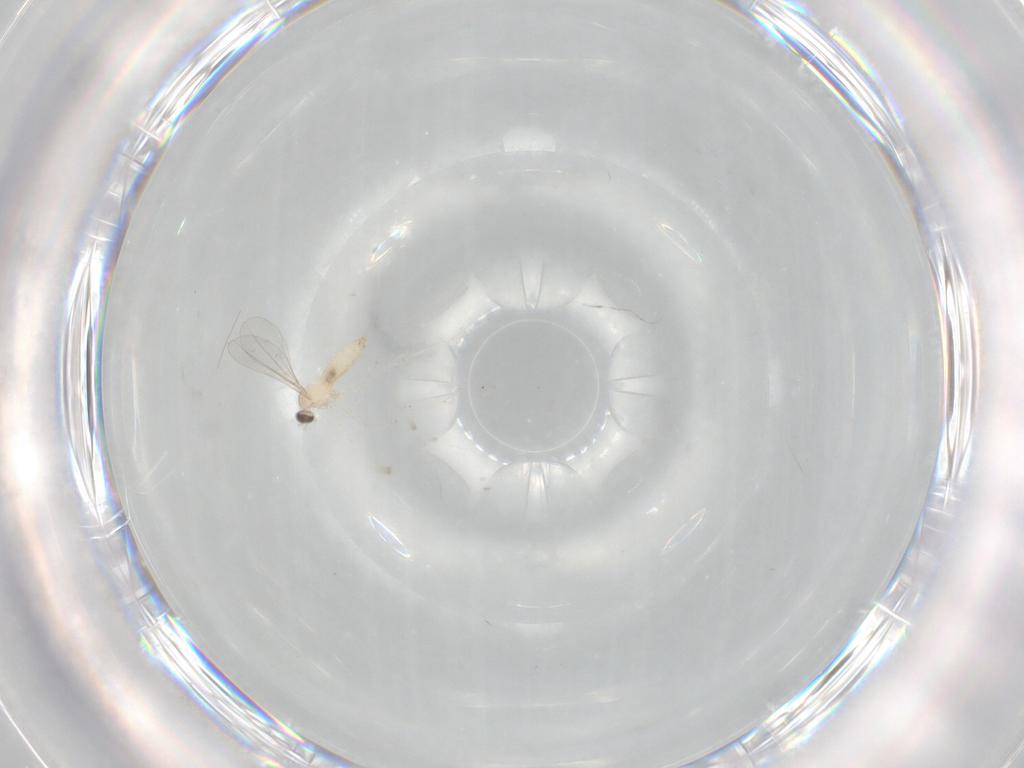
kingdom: Animalia
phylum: Arthropoda
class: Insecta
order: Diptera
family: Cecidomyiidae
